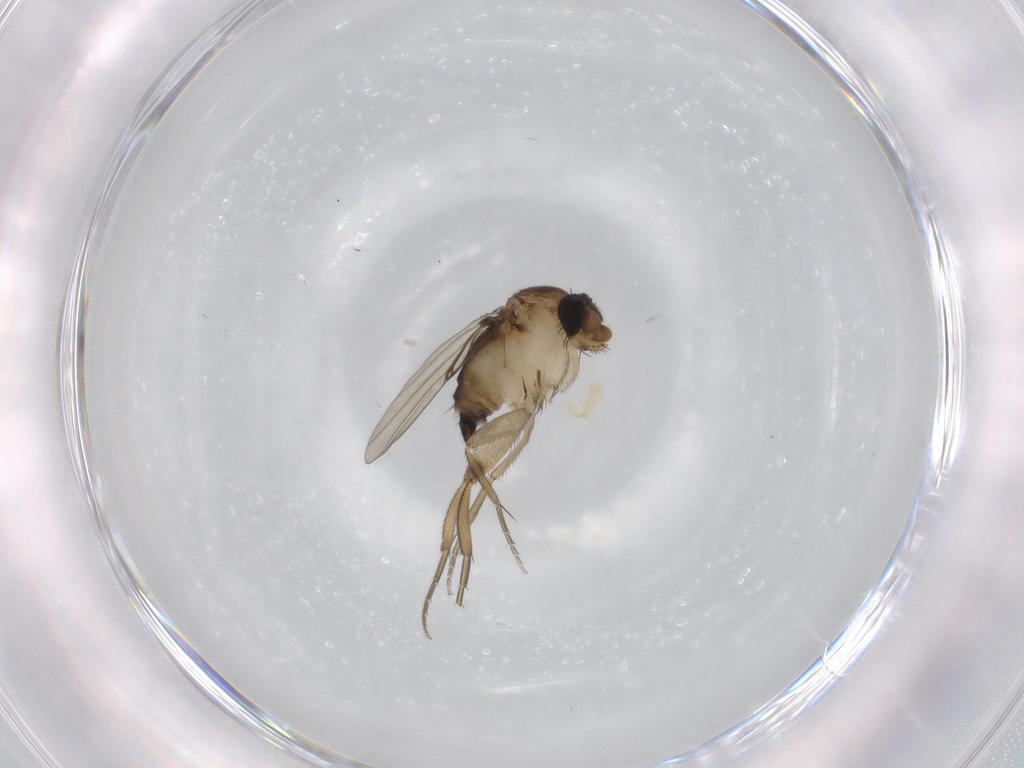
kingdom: Animalia
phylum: Arthropoda
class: Insecta
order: Diptera
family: Phoridae
